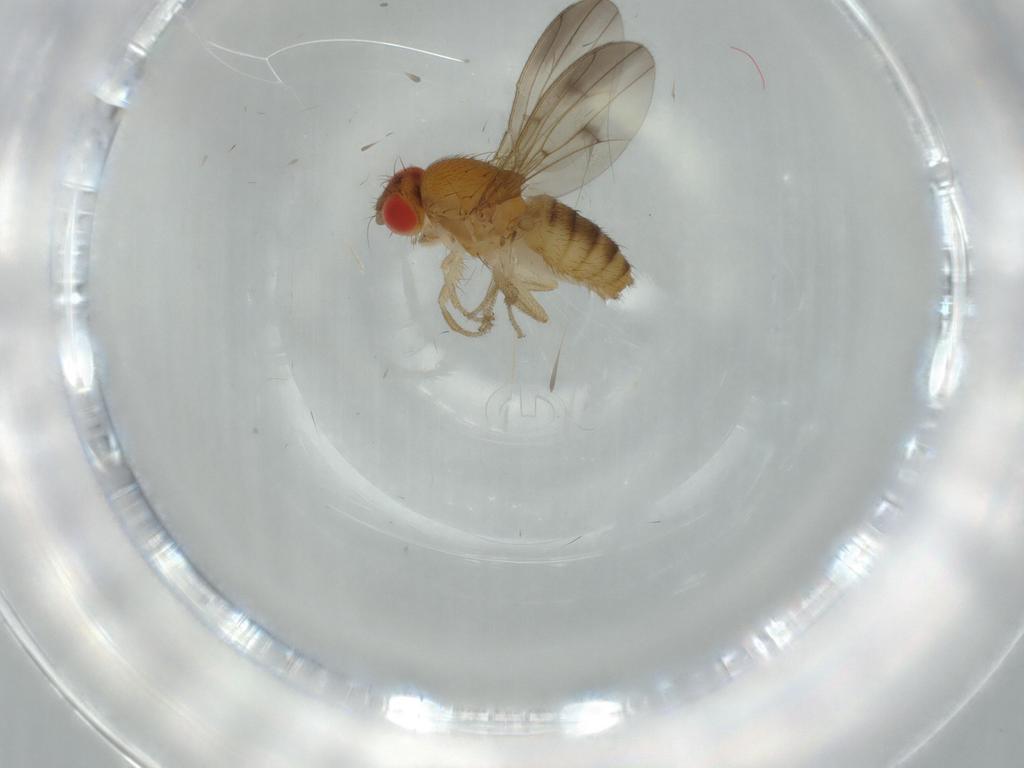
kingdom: Animalia
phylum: Arthropoda
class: Insecta
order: Diptera
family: Drosophilidae
